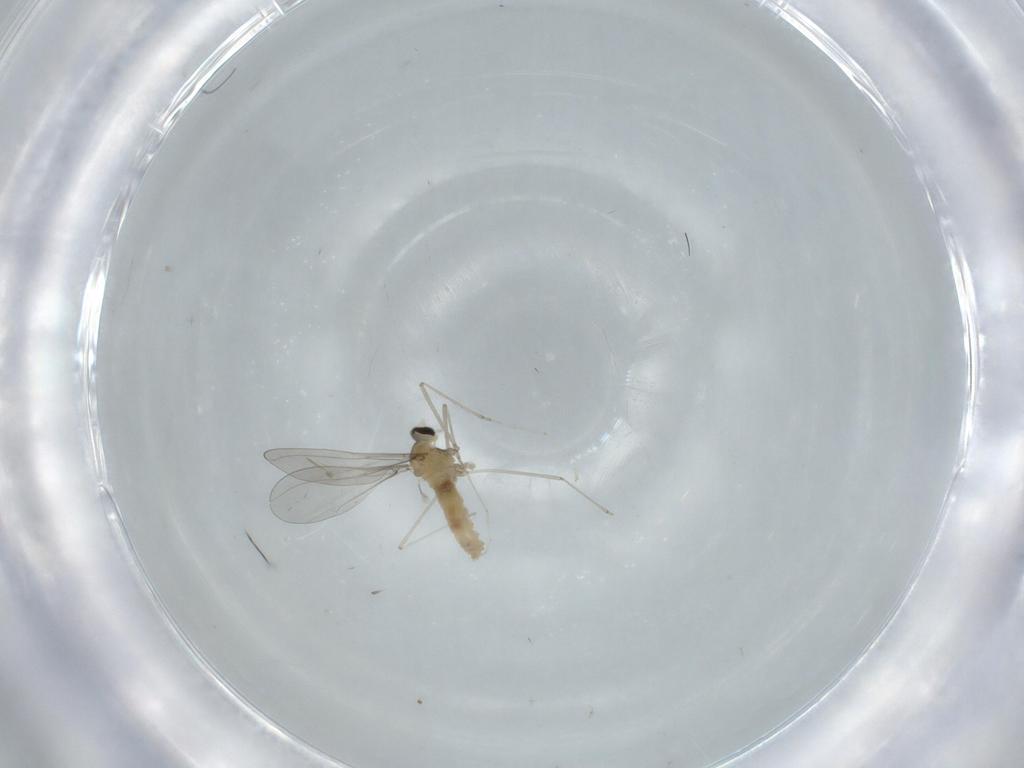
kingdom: Animalia
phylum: Arthropoda
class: Insecta
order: Diptera
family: Cecidomyiidae
